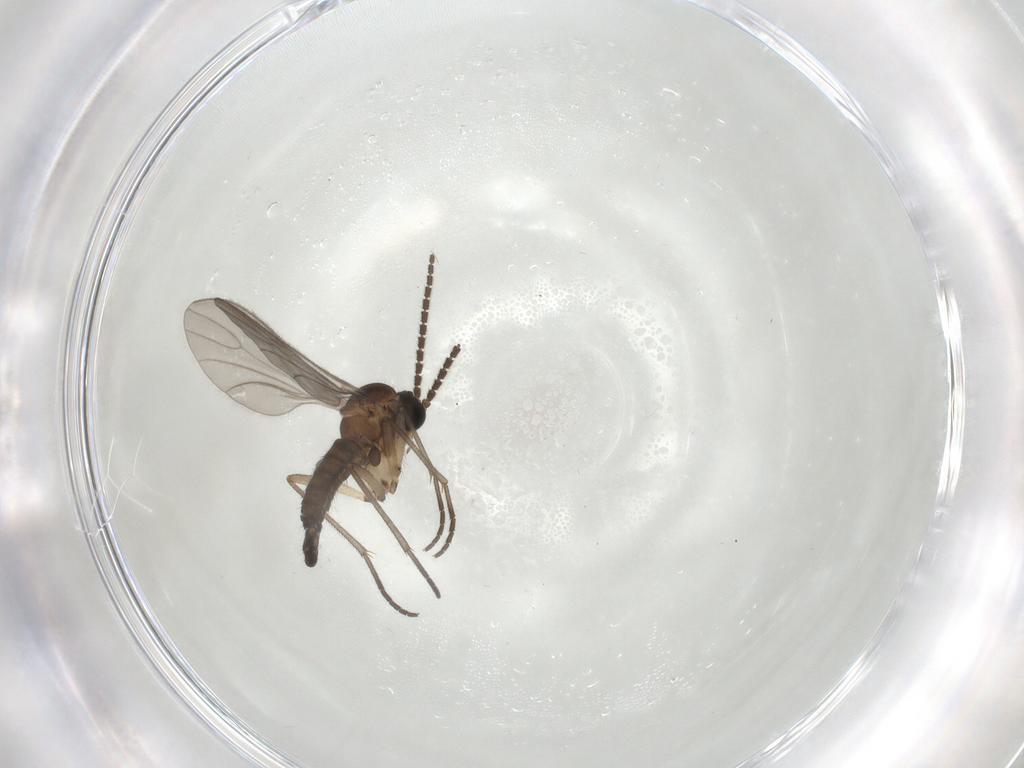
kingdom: Animalia
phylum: Arthropoda
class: Insecta
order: Diptera
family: Sciaridae
